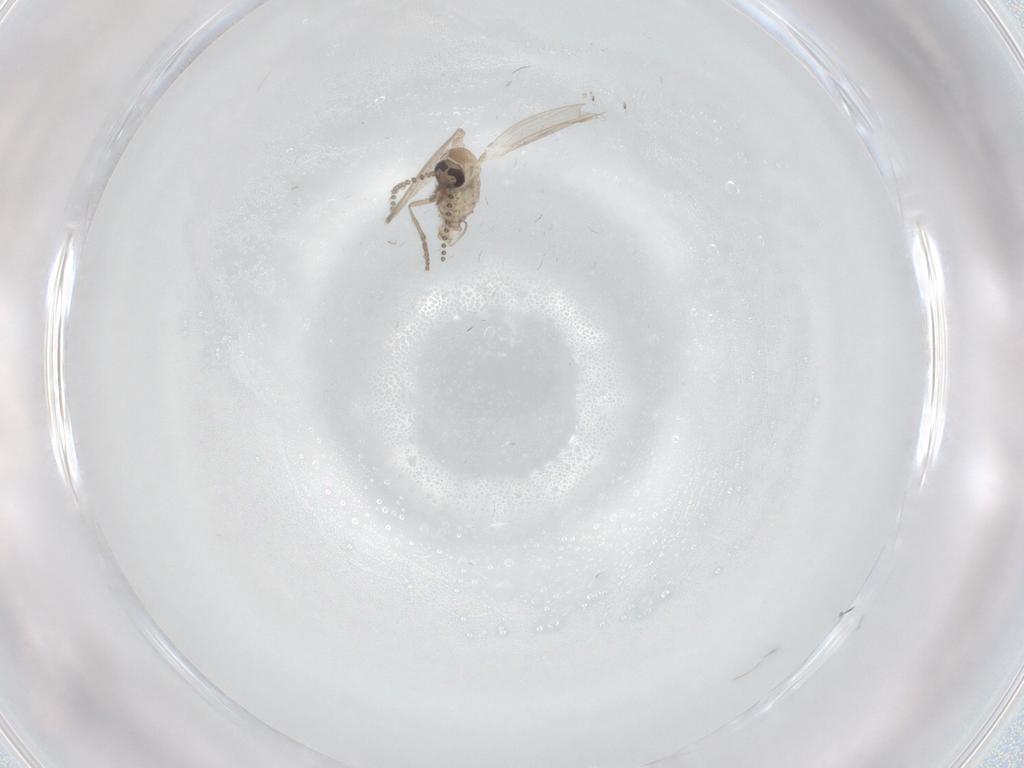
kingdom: Animalia
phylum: Arthropoda
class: Insecta
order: Diptera
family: Psychodidae
